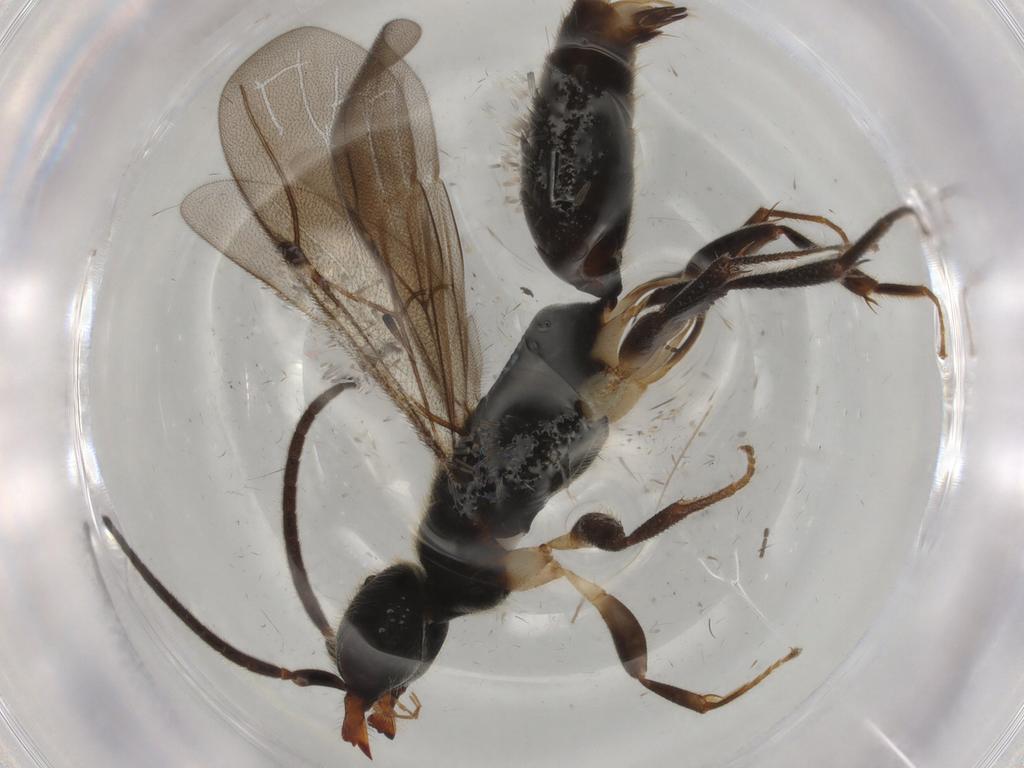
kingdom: Animalia
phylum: Arthropoda
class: Insecta
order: Hymenoptera
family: Bethylidae
